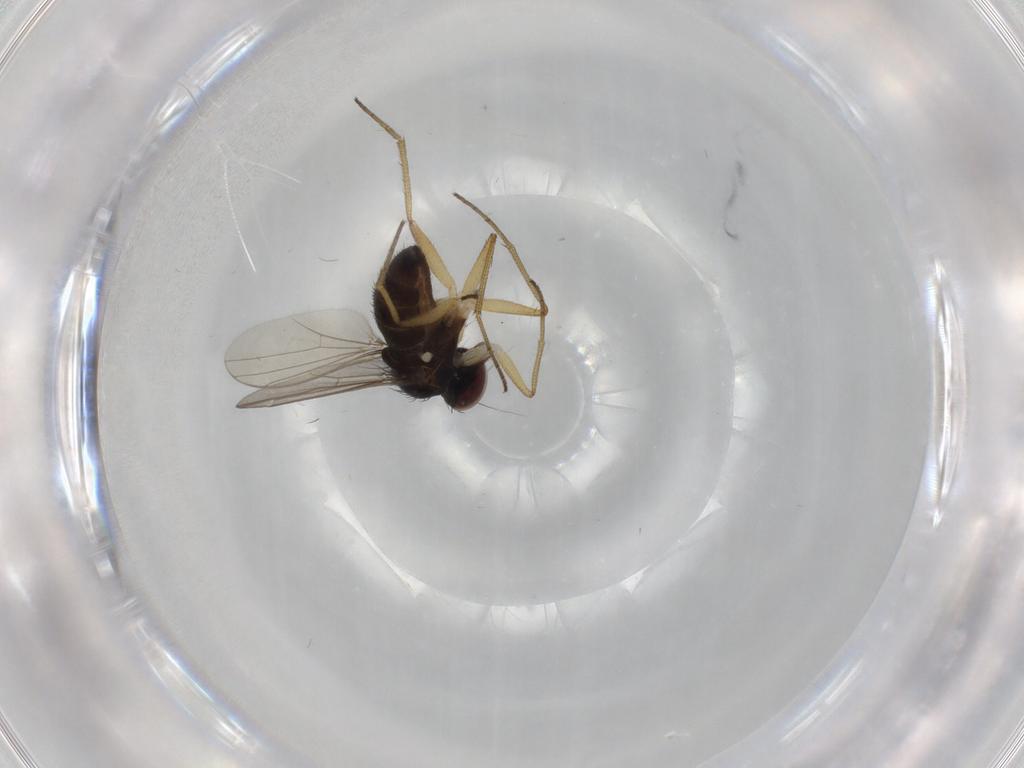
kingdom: Animalia
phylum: Arthropoda
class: Insecta
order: Diptera
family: Dolichopodidae
